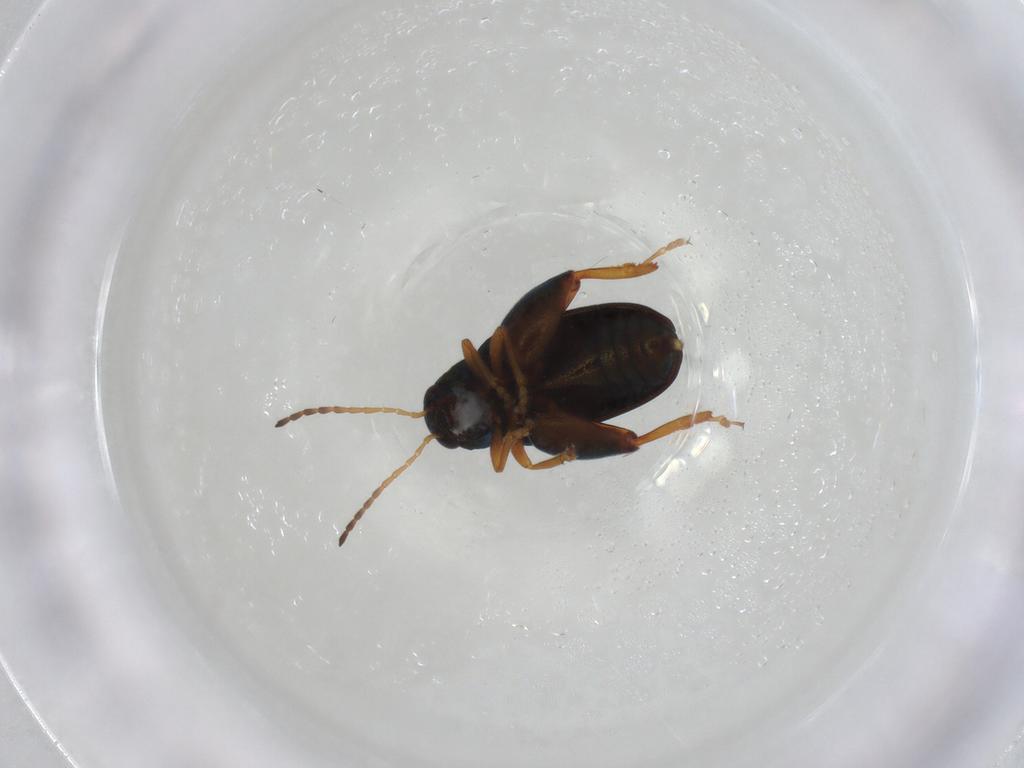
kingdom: Animalia
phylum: Arthropoda
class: Insecta
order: Coleoptera
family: Chrysomelidae
